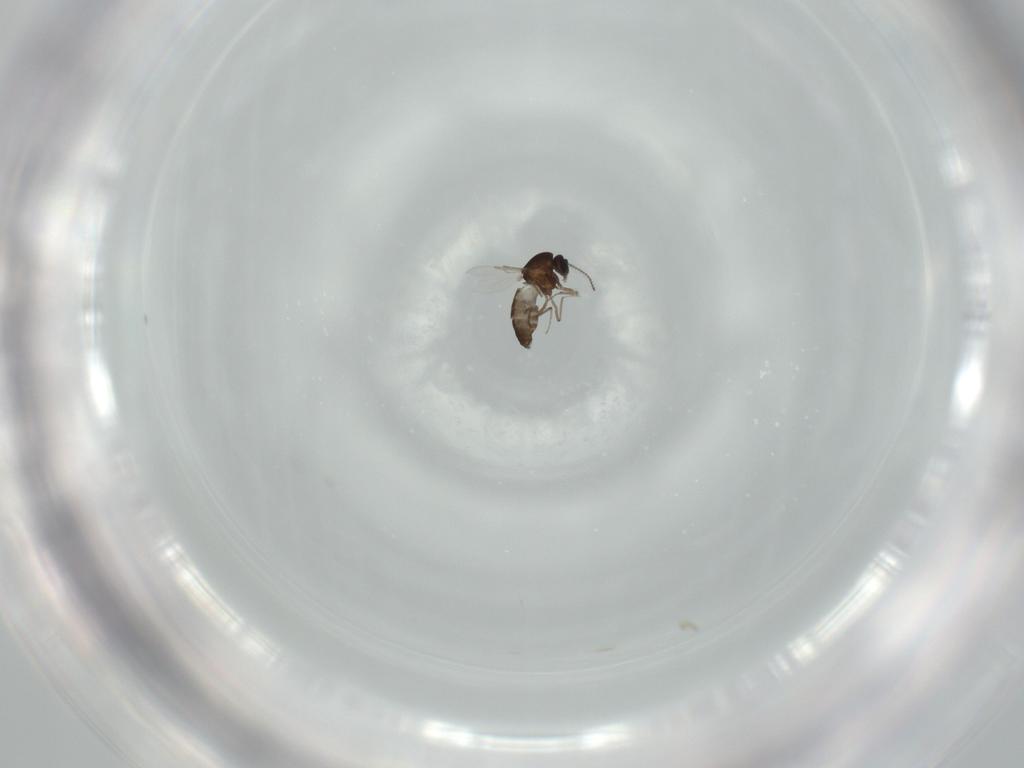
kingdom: Animalia
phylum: Arthropoda
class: Insecta
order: Diptera
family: Ceratopogonidae
